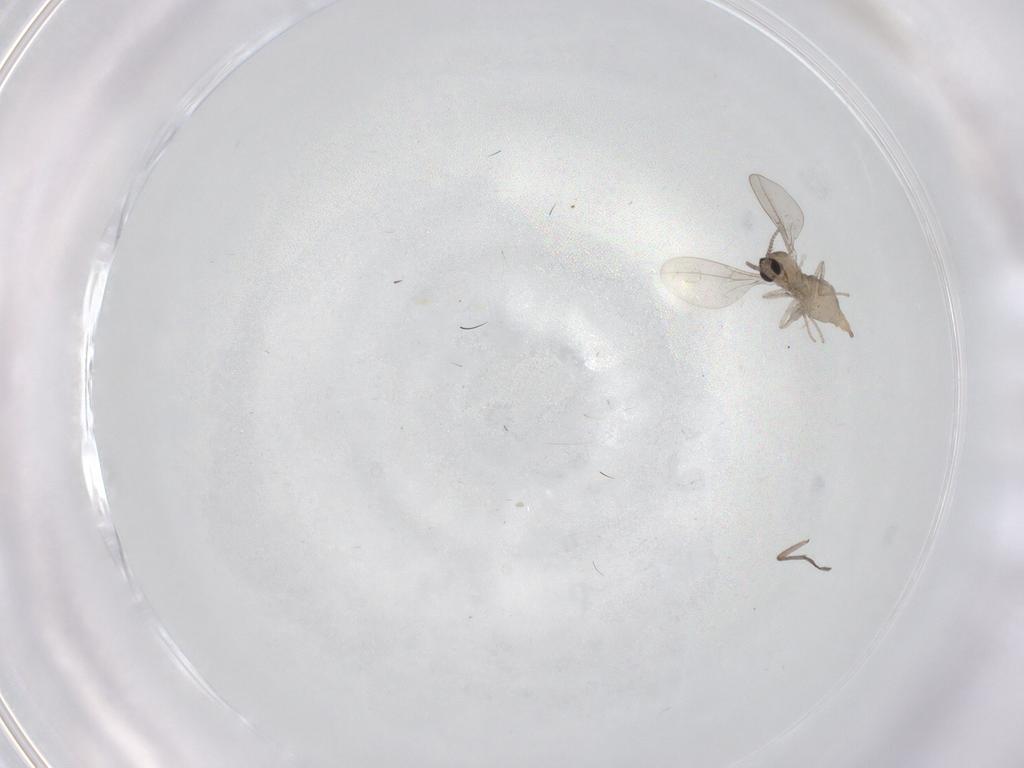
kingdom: Animalia
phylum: Arthropoda
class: Insecta
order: Diptera
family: Cecidomyiidae
